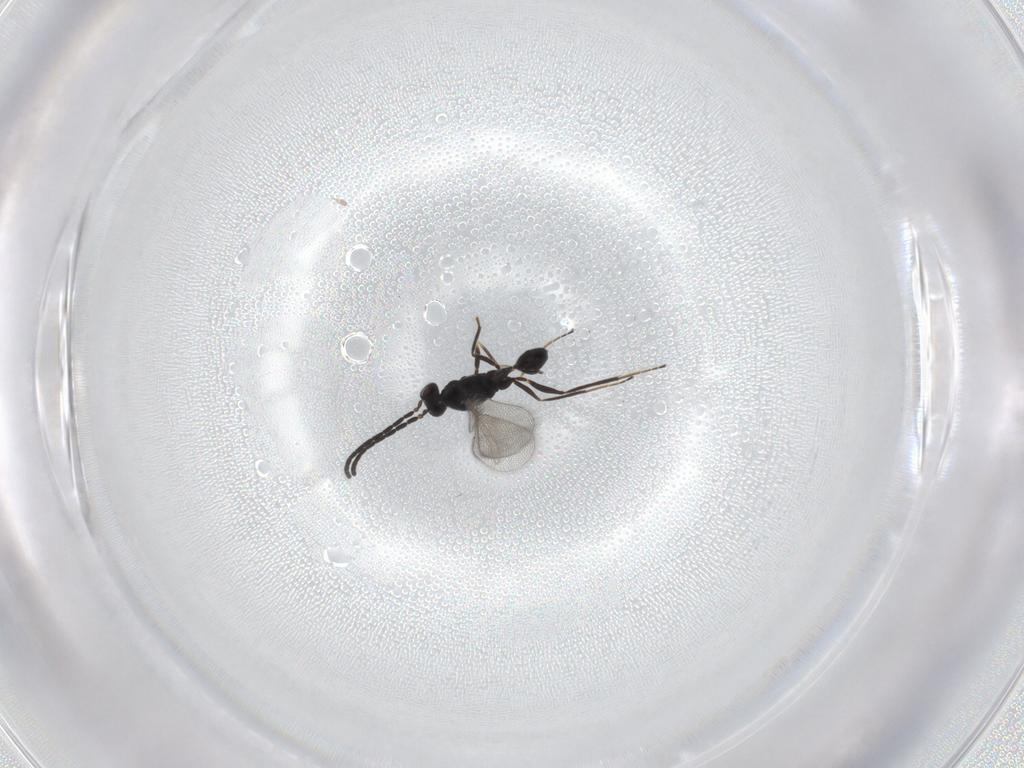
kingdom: Animalia
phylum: Arthropoda
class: Insecta
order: Hymenoptera
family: Mymaridae
